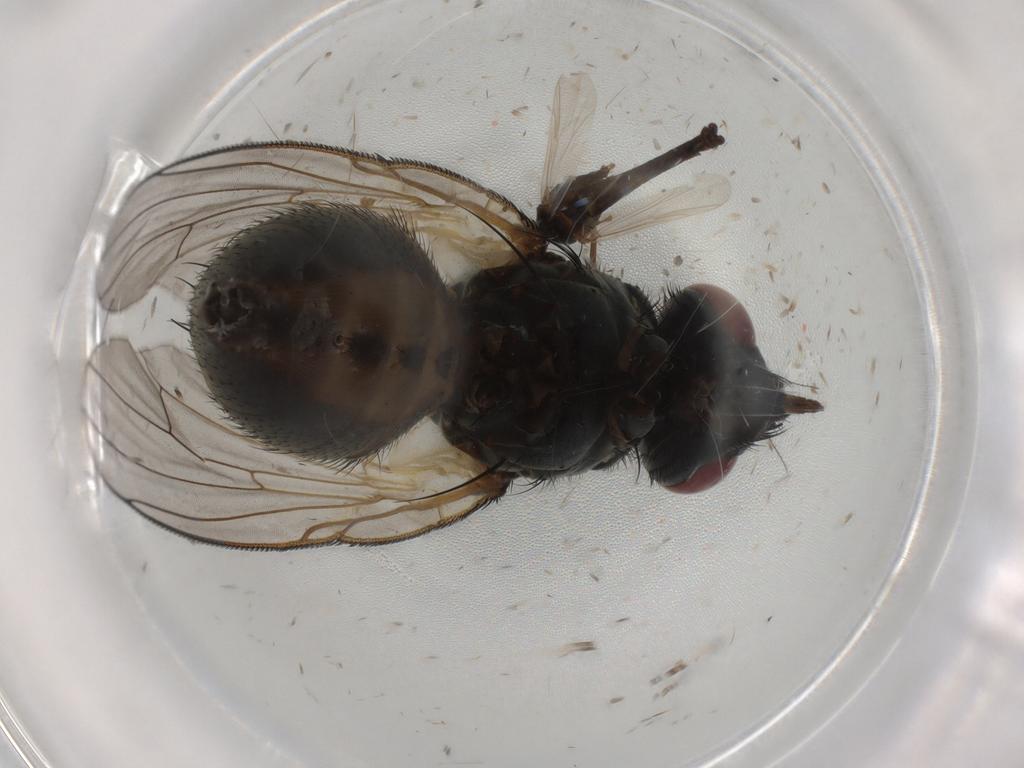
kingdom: Animalia
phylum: Arthropoda
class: Insecta
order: Diptera
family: Muscidae
